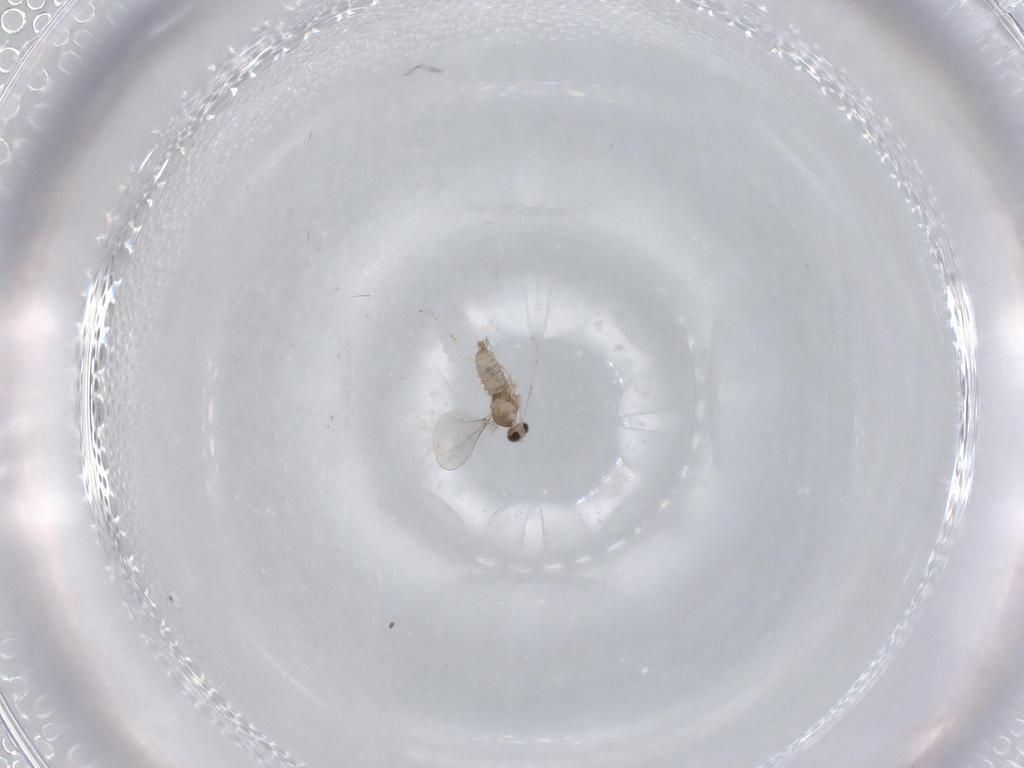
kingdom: Animalia
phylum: Arthropoda
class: Insecta
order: Diptera
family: Cecidomyiidae
